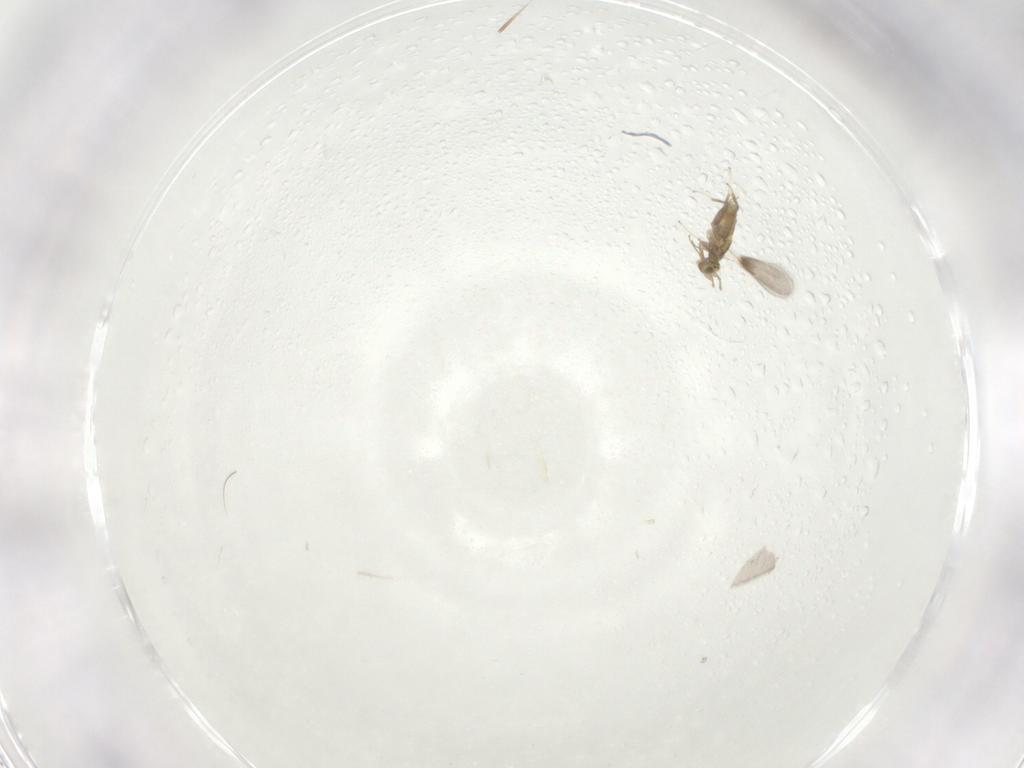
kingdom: Animalia
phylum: Arthropoda
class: Insecta
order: Hymenoptera
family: Aphelinidae
